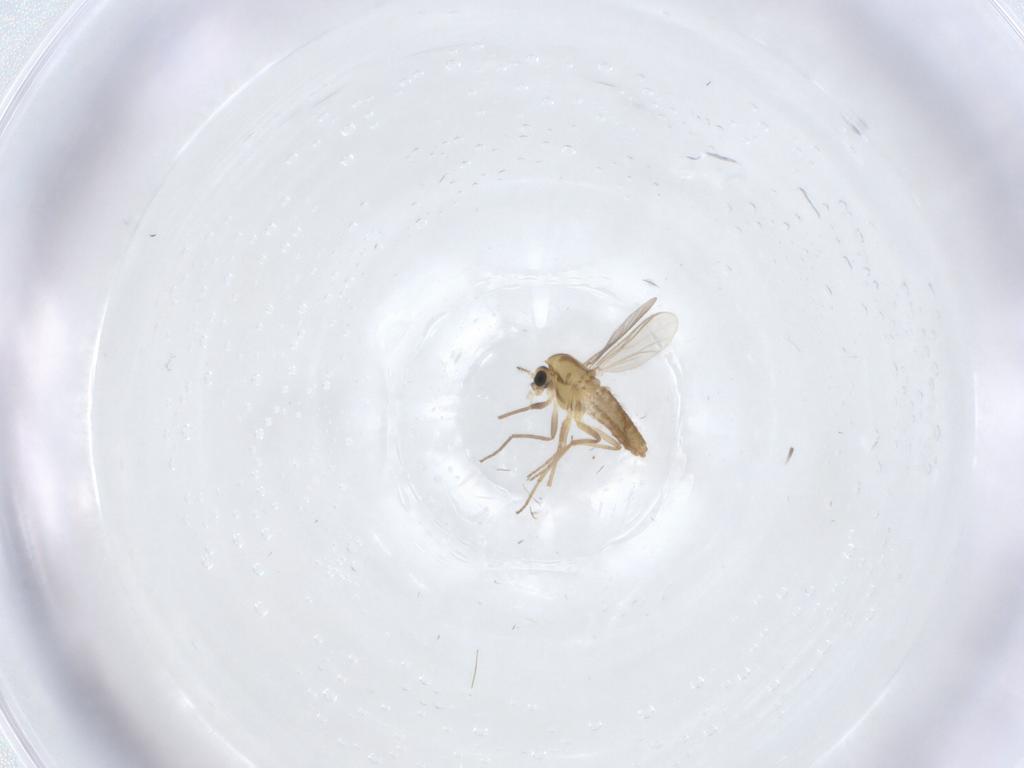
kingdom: Animalia
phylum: Arthropoda
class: Insecta
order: Diptera
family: Chironomidae
